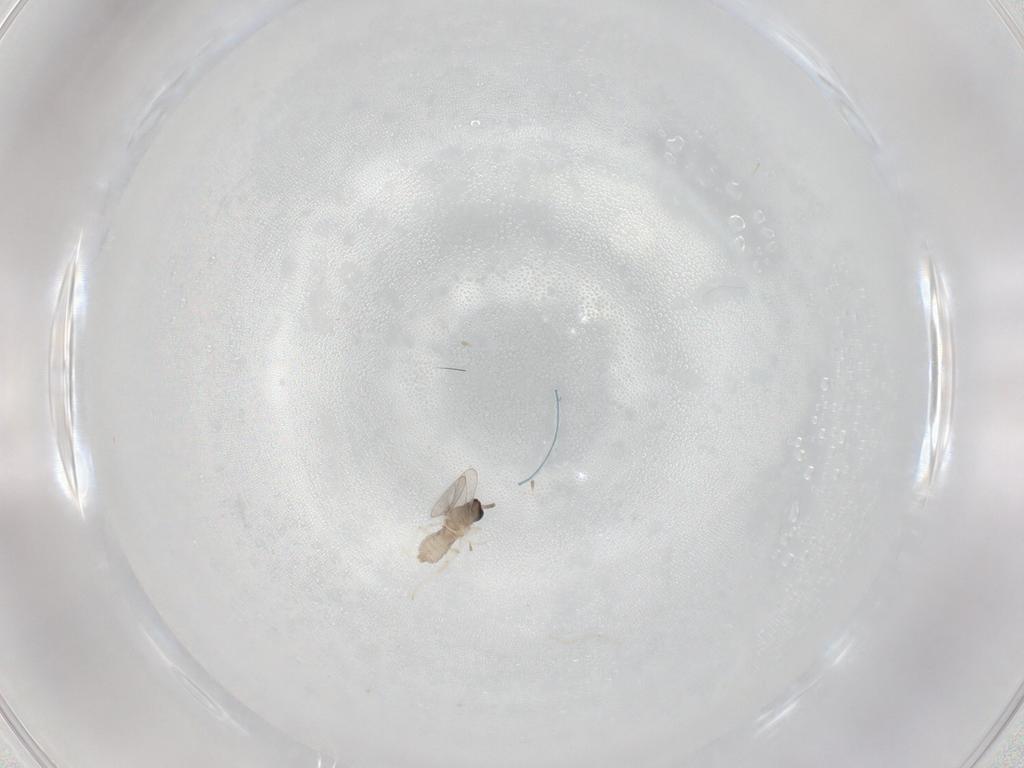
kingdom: Animalia
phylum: Arthropoda
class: Insecta
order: Diptera
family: Cecidomyiidae
